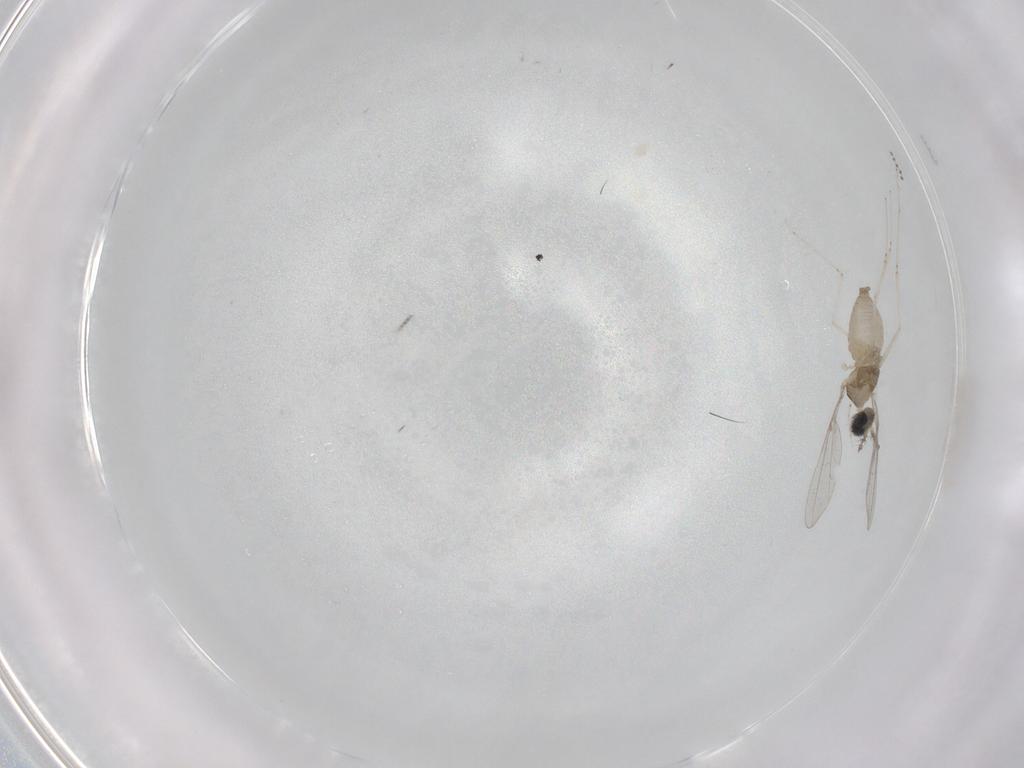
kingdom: Animalia
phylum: Arthropoda
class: Insecta
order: Diptera
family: Cecidomyiidae
